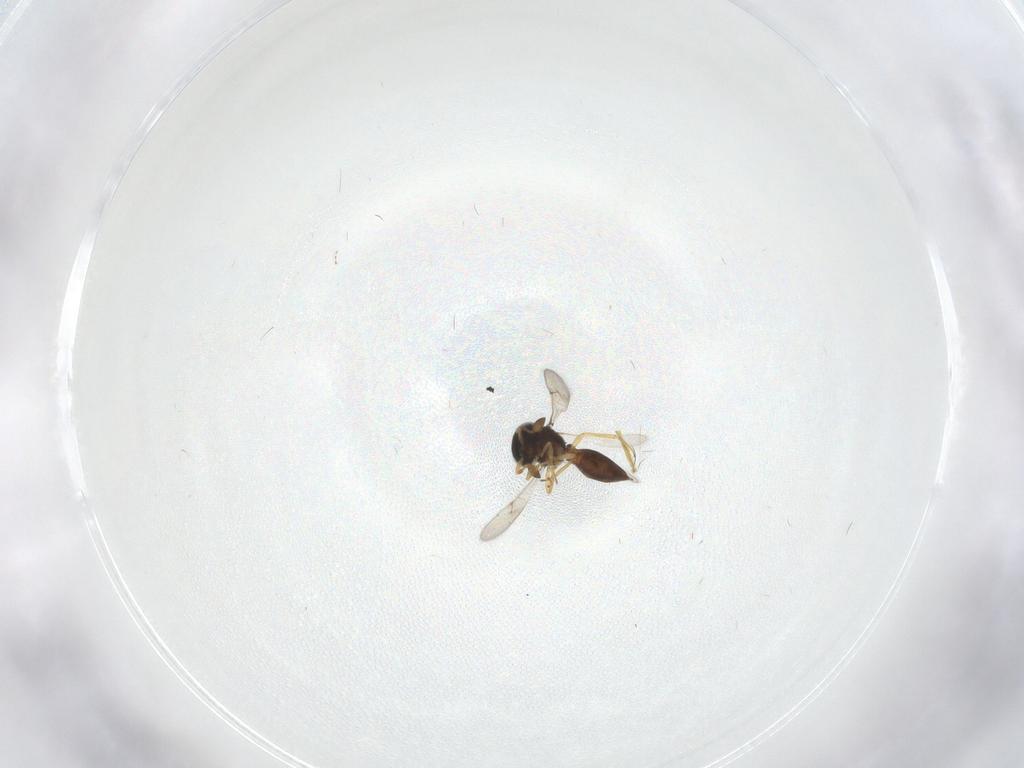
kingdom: Animalia
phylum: Arthropoda
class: Insecta
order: Hymenoptera
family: Scelionidae
